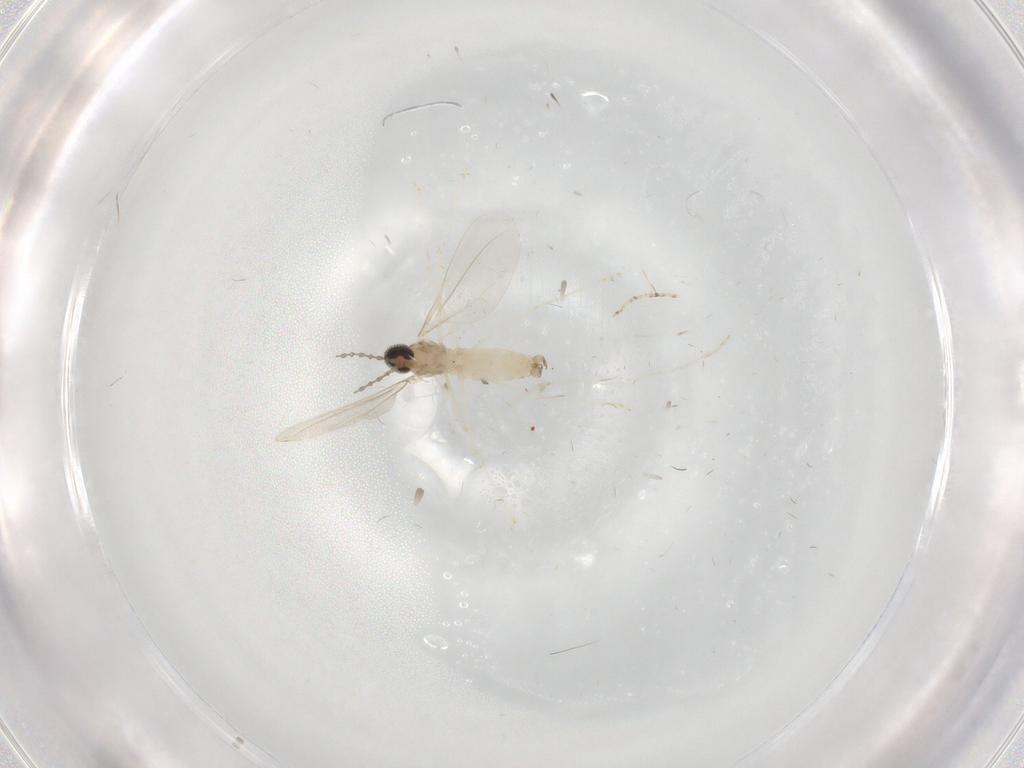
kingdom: Animalia
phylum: Arthropoda
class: Insecta
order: Diptera
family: Cecidomyiidae
